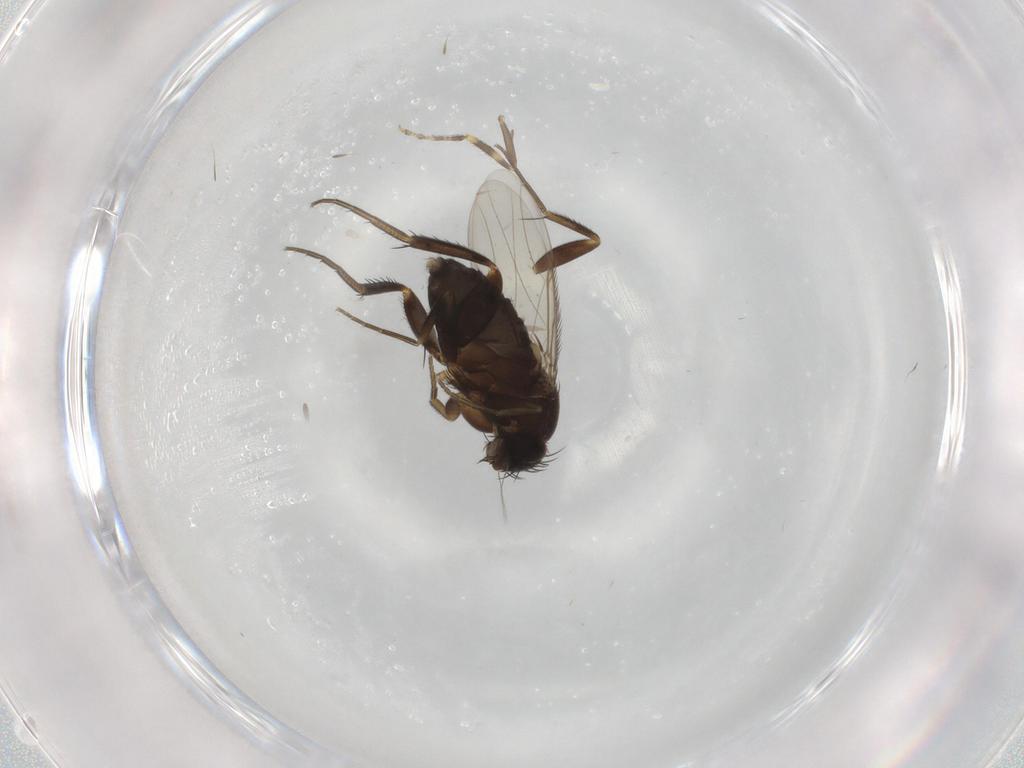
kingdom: Animalia
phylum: Arthropoda
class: Insecta
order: Diptera
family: Phoridae
